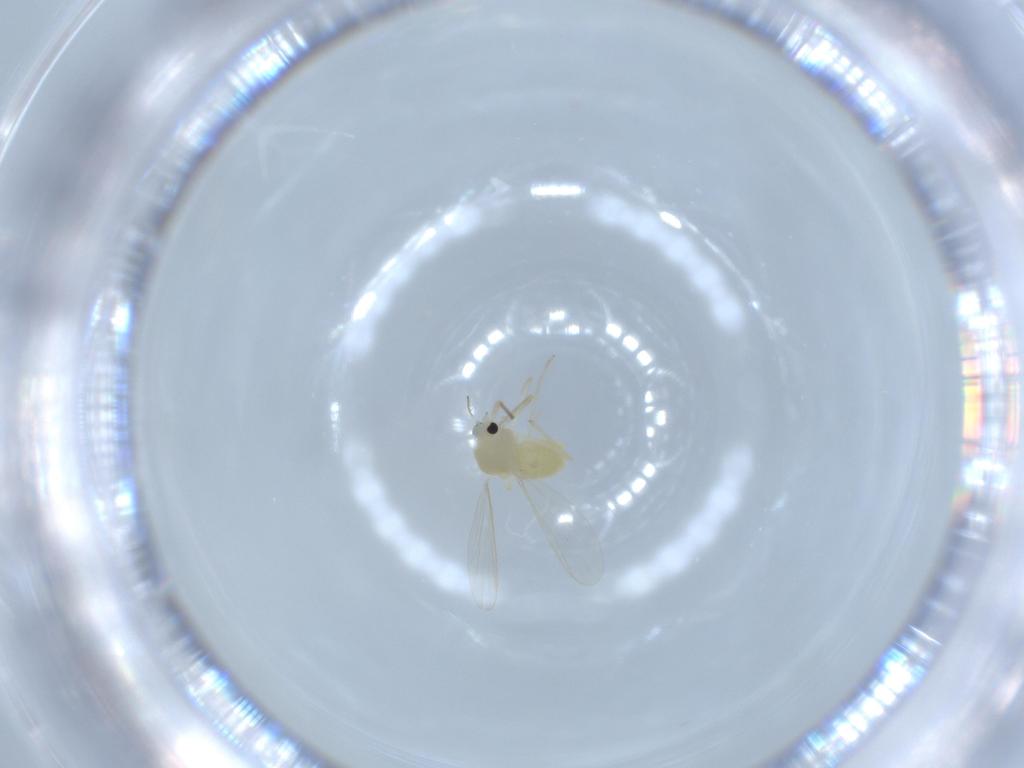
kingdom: Animalia
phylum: Arthropoda
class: Insecta
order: Diptera
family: Chironomidae
